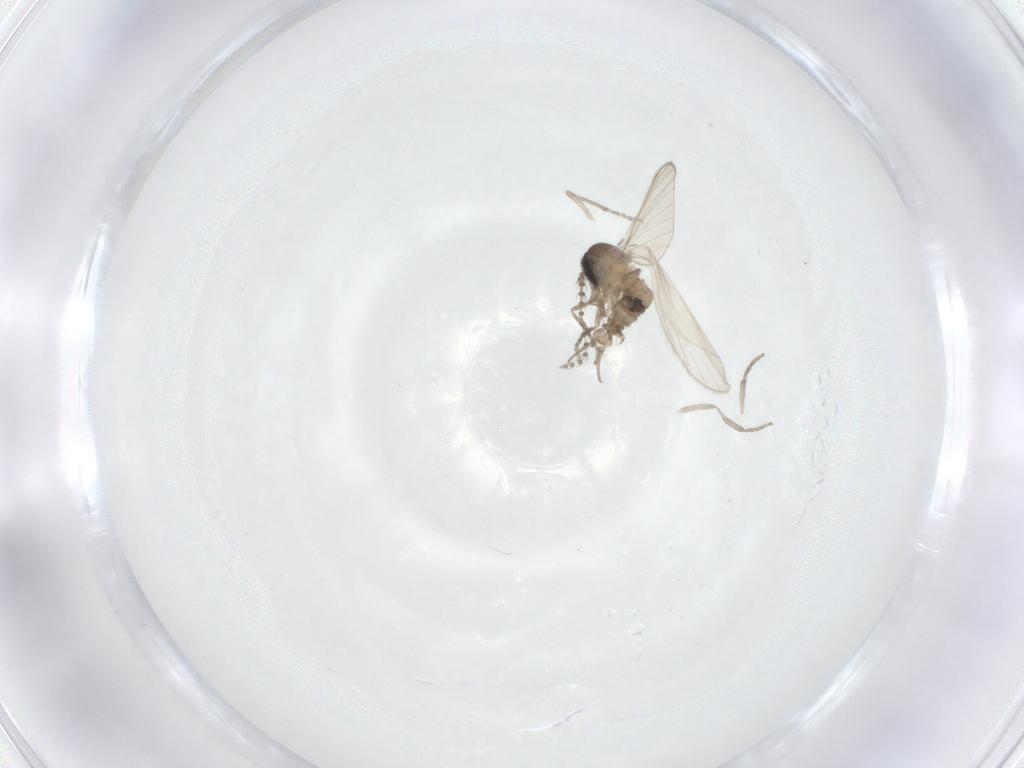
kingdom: Animalia
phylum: Arthropoda
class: Insecta
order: Diptera
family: Psychodidae
